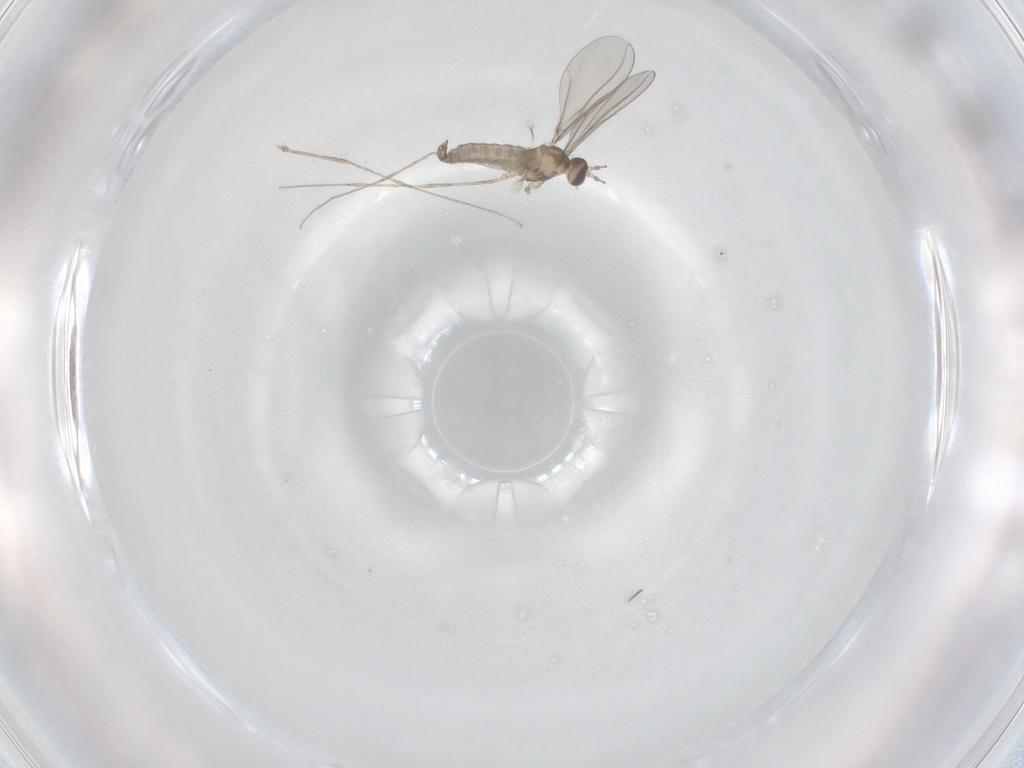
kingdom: Animalia
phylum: Arthropoda
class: Insecta
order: Diptera
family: Cecidomyiidae
